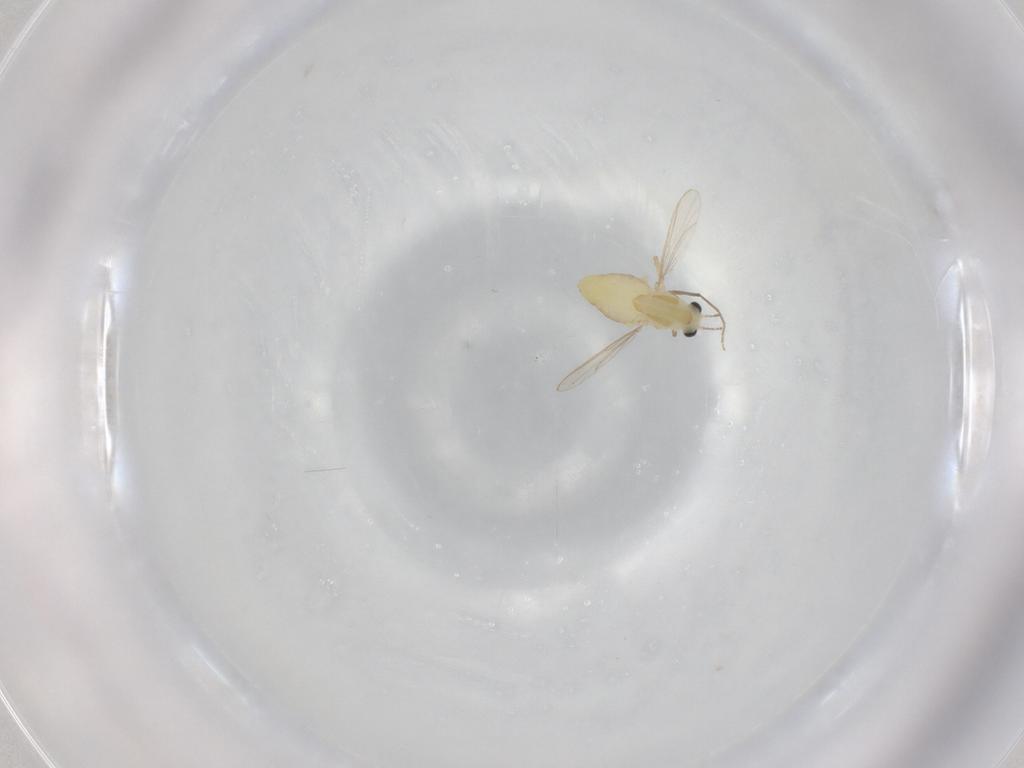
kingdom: Animalia
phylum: Arthropoda
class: Insecta
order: Diptera
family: Chironomidae
